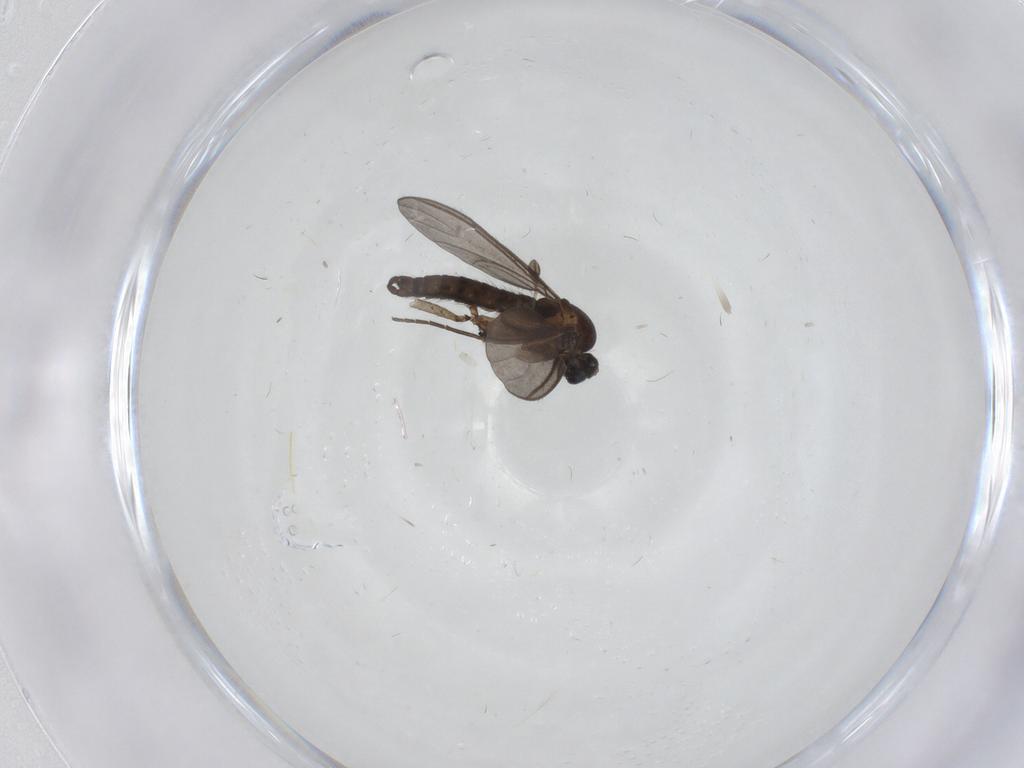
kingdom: Animalia
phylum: Arthropoda
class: Insecta
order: Diptera
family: Sciaridae
